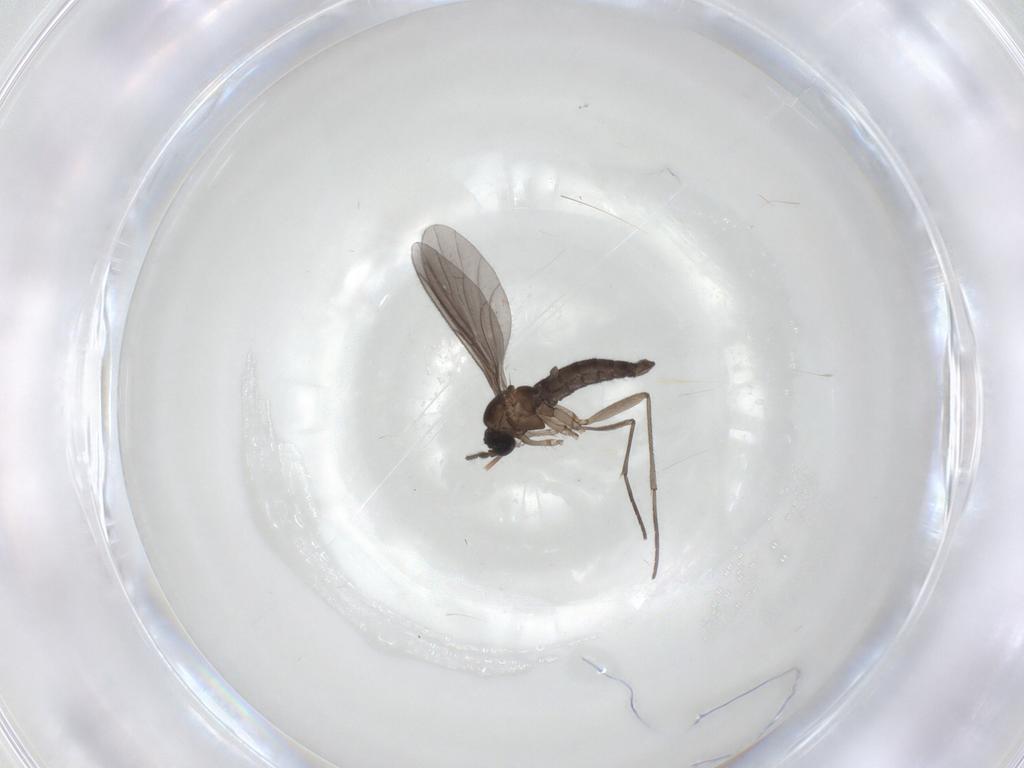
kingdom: Animalia
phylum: Arthropoda
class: Insecta
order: Diptera
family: Sciaridae
